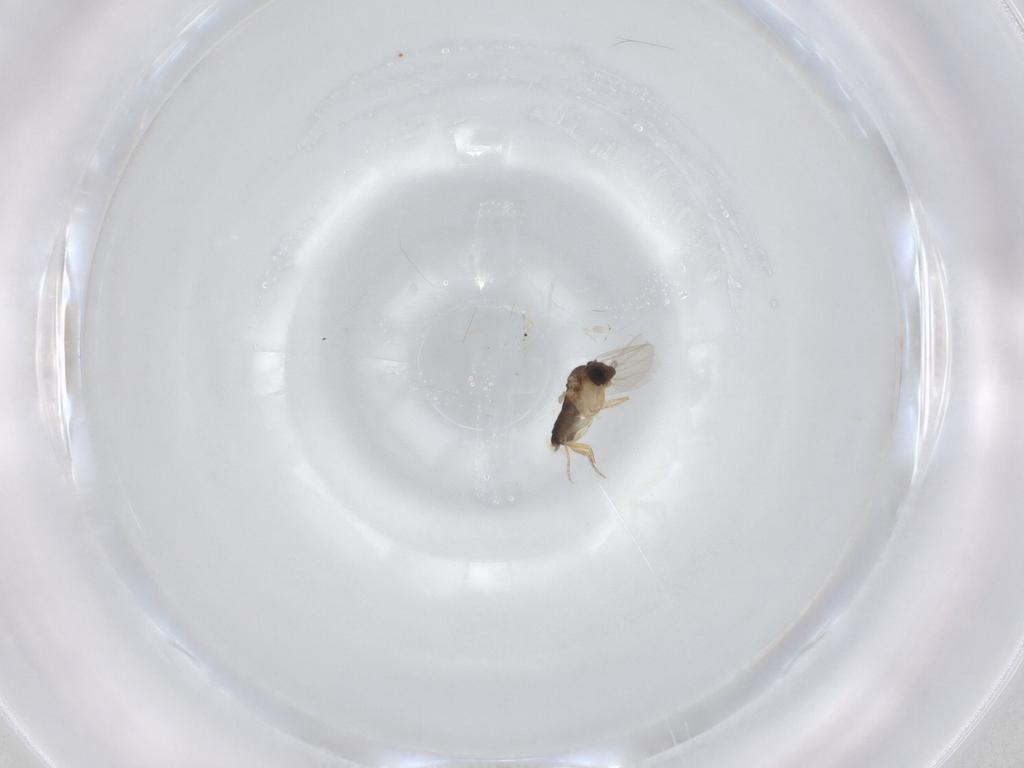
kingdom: Animalia
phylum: Arthropoda
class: Insecta
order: Diptera
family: Phoridae
